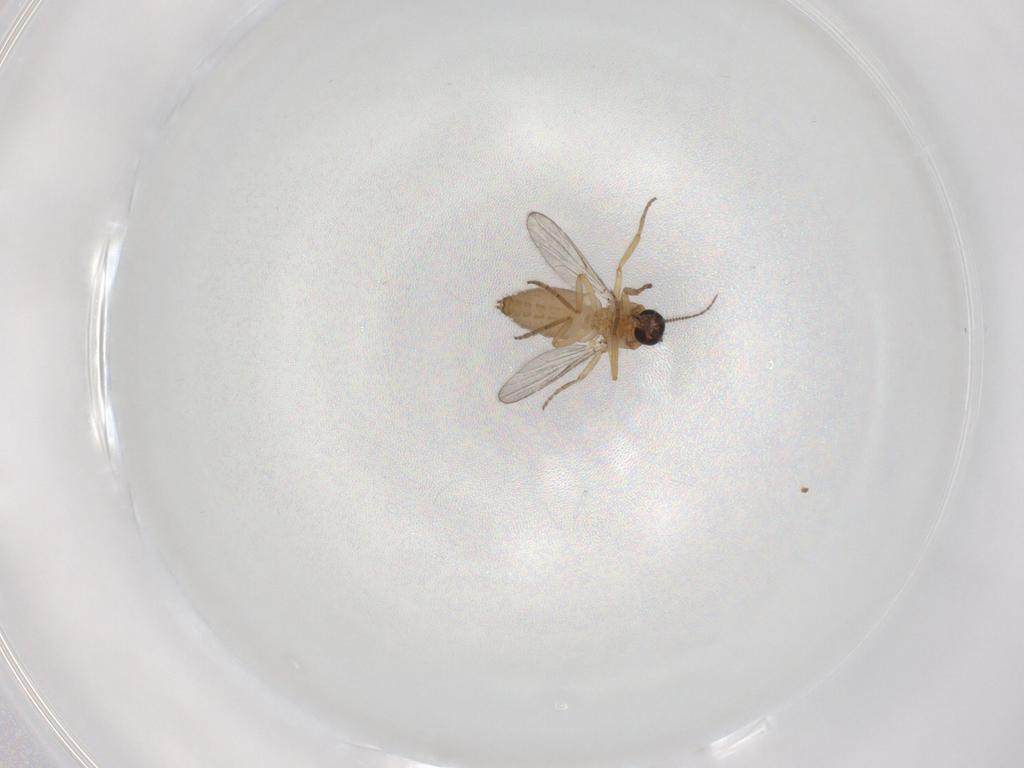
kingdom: Animalia
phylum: Arthropoda
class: Insecta
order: Diptera
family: Ceratopogonidae
